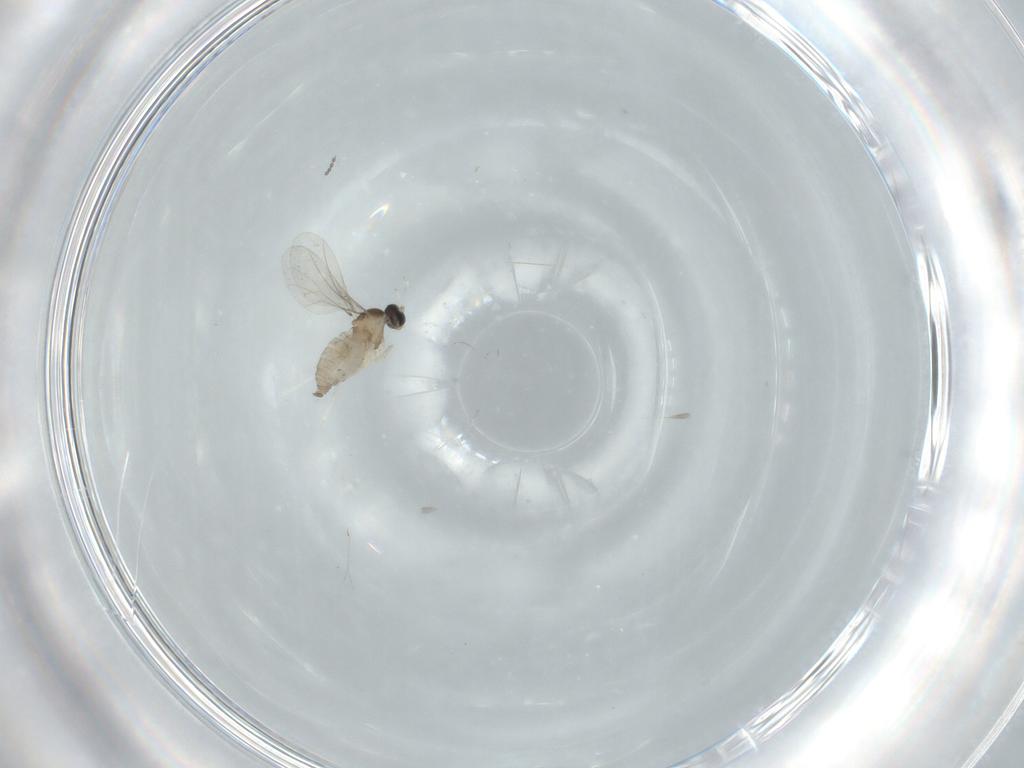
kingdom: Animalia
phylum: Arthropoda
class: Insecta
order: Diptera
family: Cecidomyiidae
